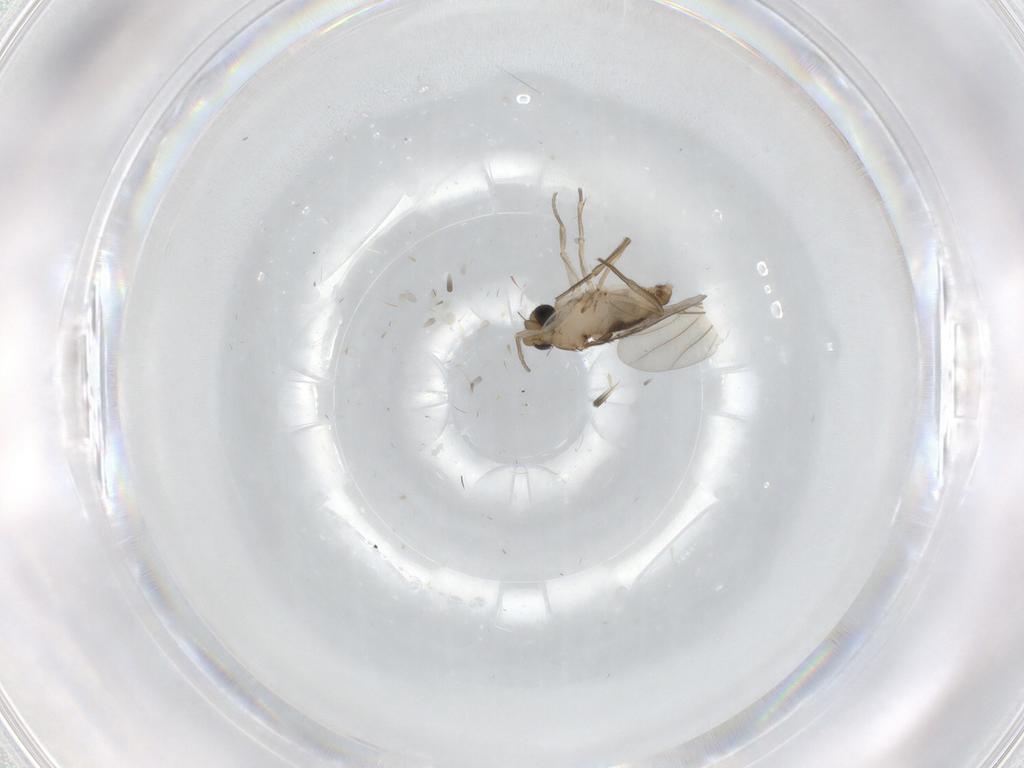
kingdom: Animalia
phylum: Arthropoda
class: Insecta
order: Diptera
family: Phoridae
